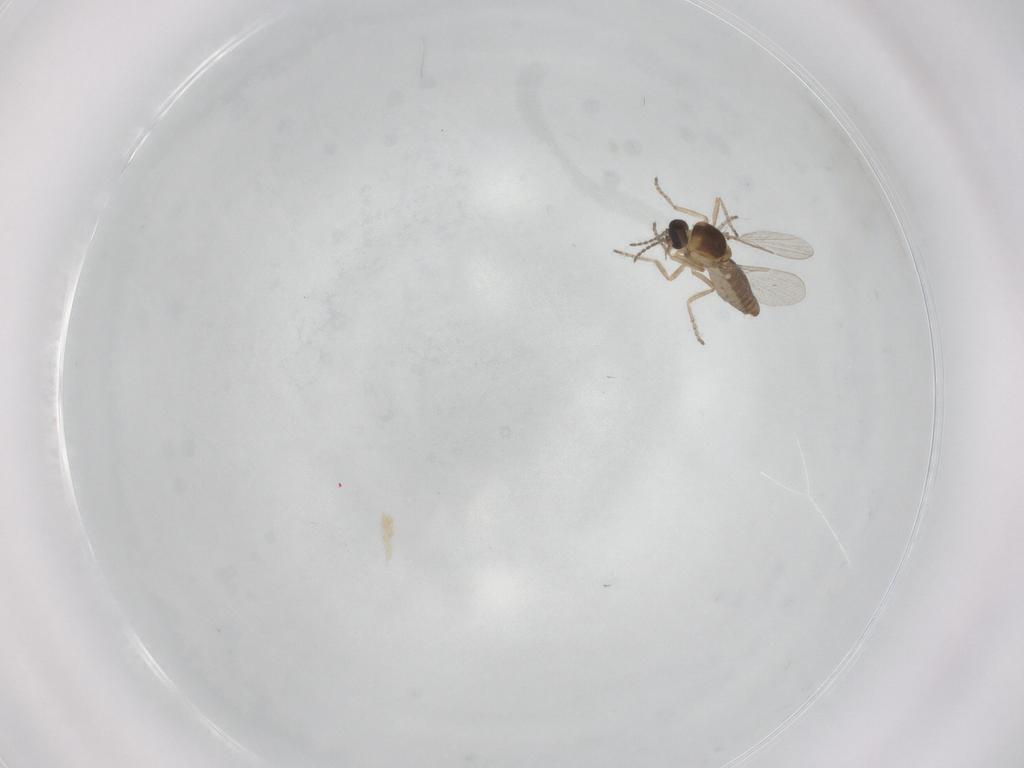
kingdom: Animalia
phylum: Arthropoda
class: Insecta
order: Diptera
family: Ceratopogonidae
